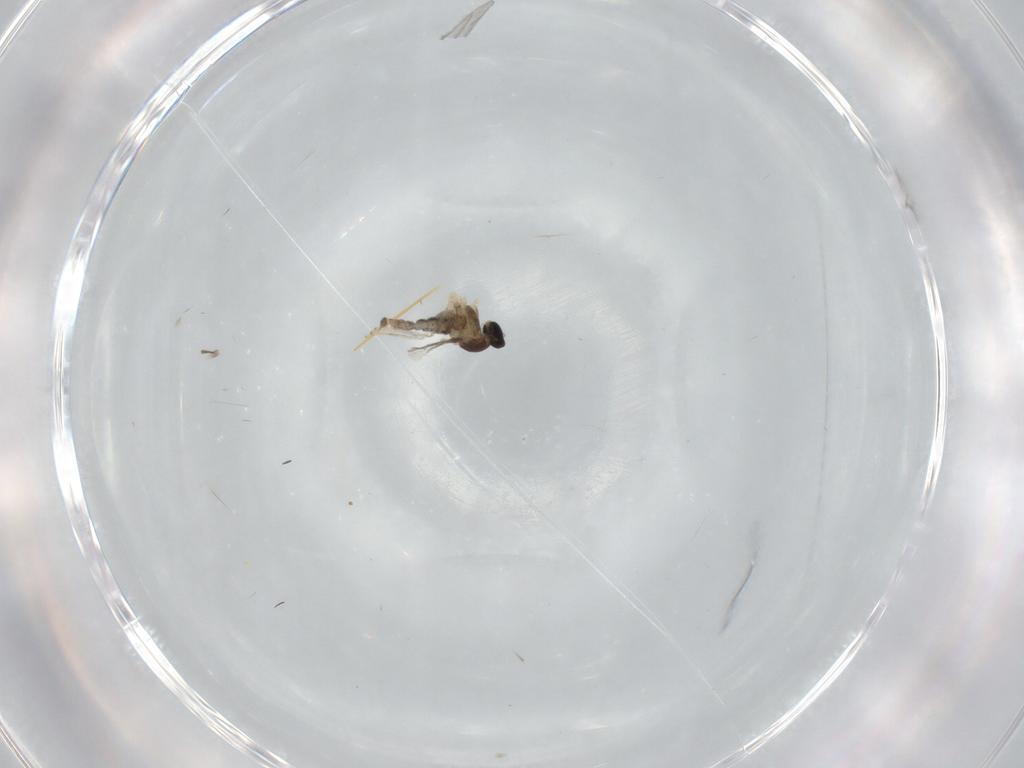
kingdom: Animalia
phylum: Arthropoda
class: Insecta
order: Diptera
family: Cecidomyiidae
